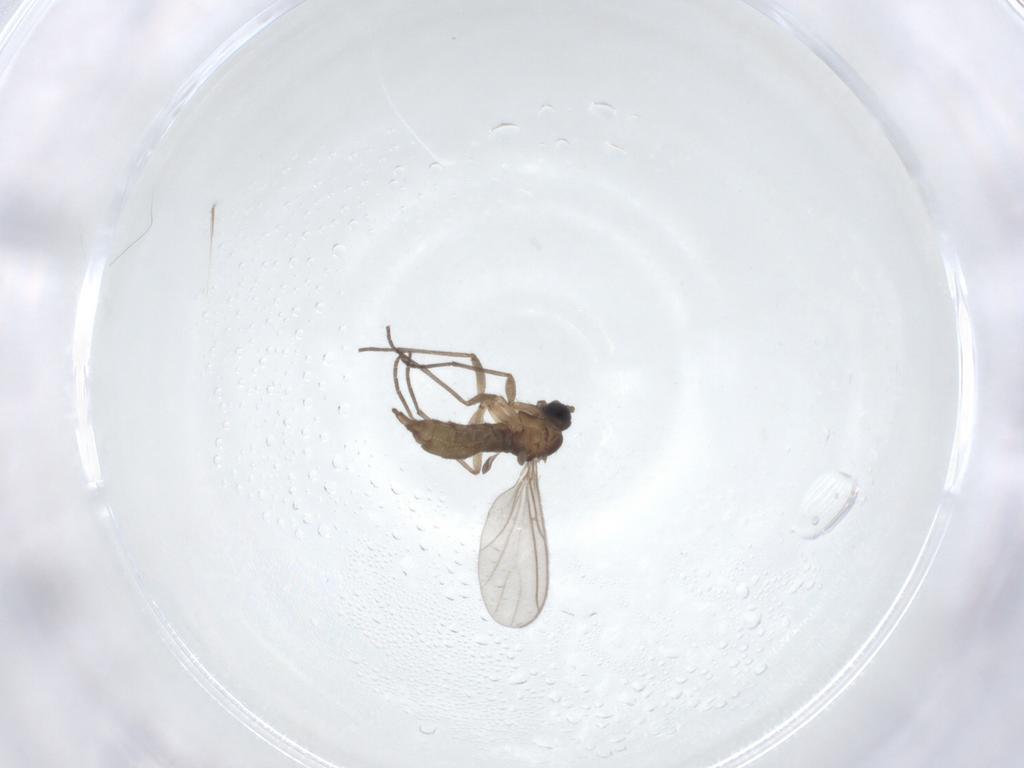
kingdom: Animalia
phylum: Arthropoda
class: Insecta
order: Diptera
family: Sciaridae
